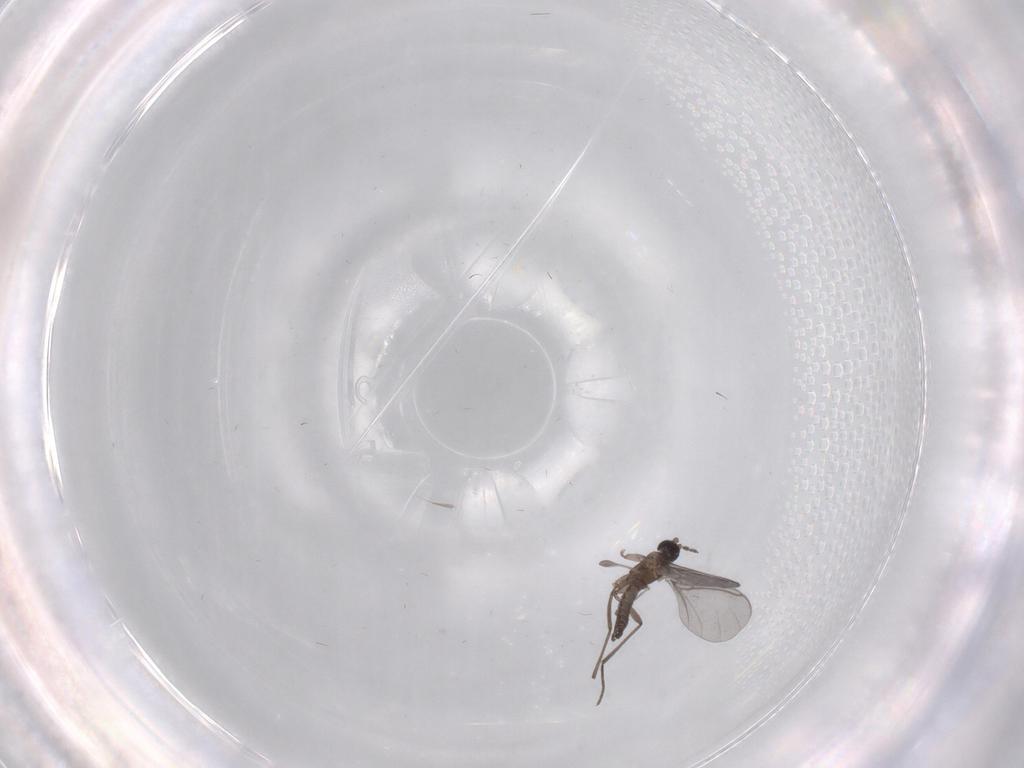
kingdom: Animalia
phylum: Arthropoda
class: Insecta
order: Diptera
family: Sciaridae
